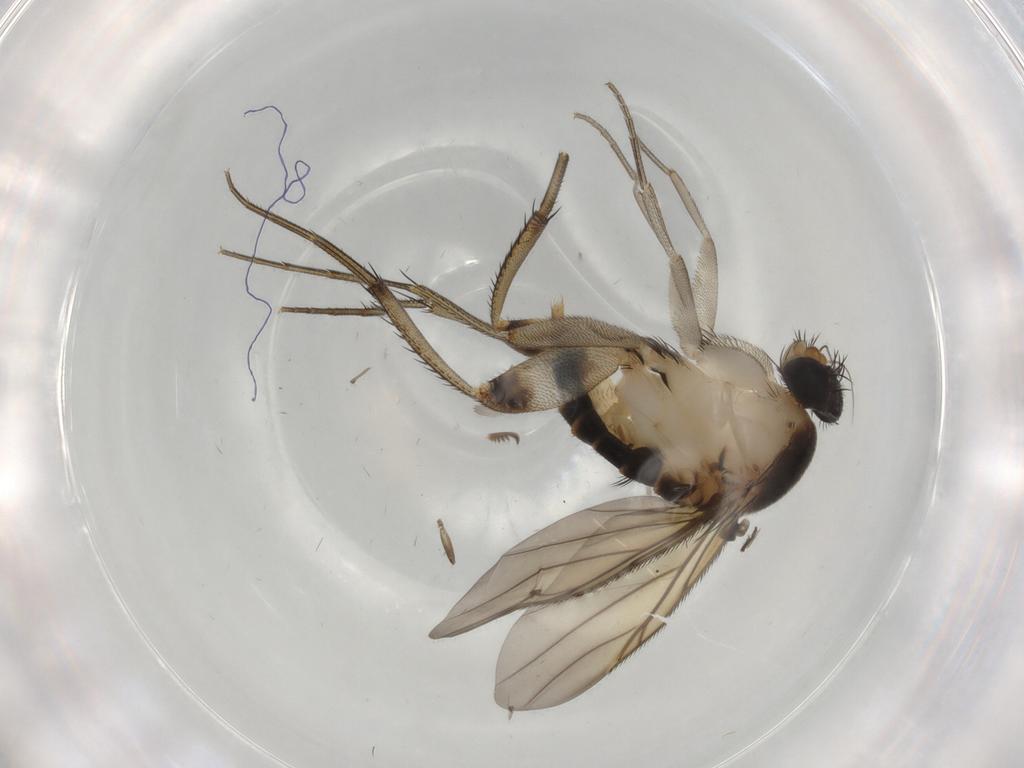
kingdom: Animalia
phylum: Arthropoda
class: Insecta
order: Diptera
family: Phoridae
